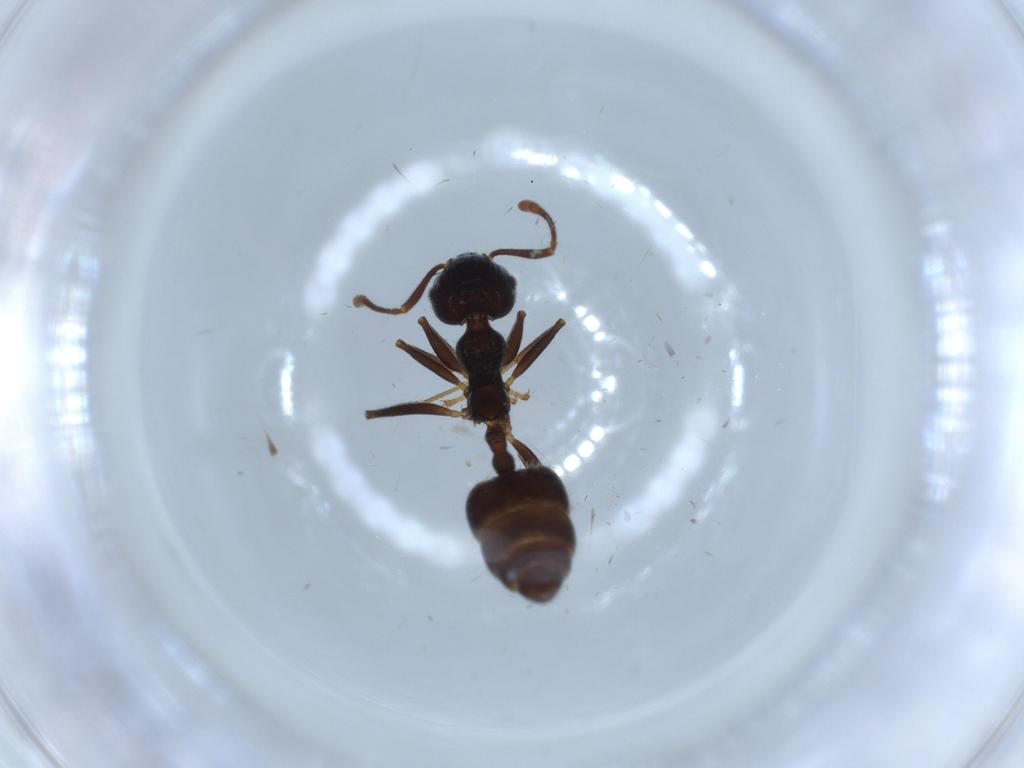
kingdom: Animalia
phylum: Arthropoda
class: Insecta
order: Hymenoptera
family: Formicidae
